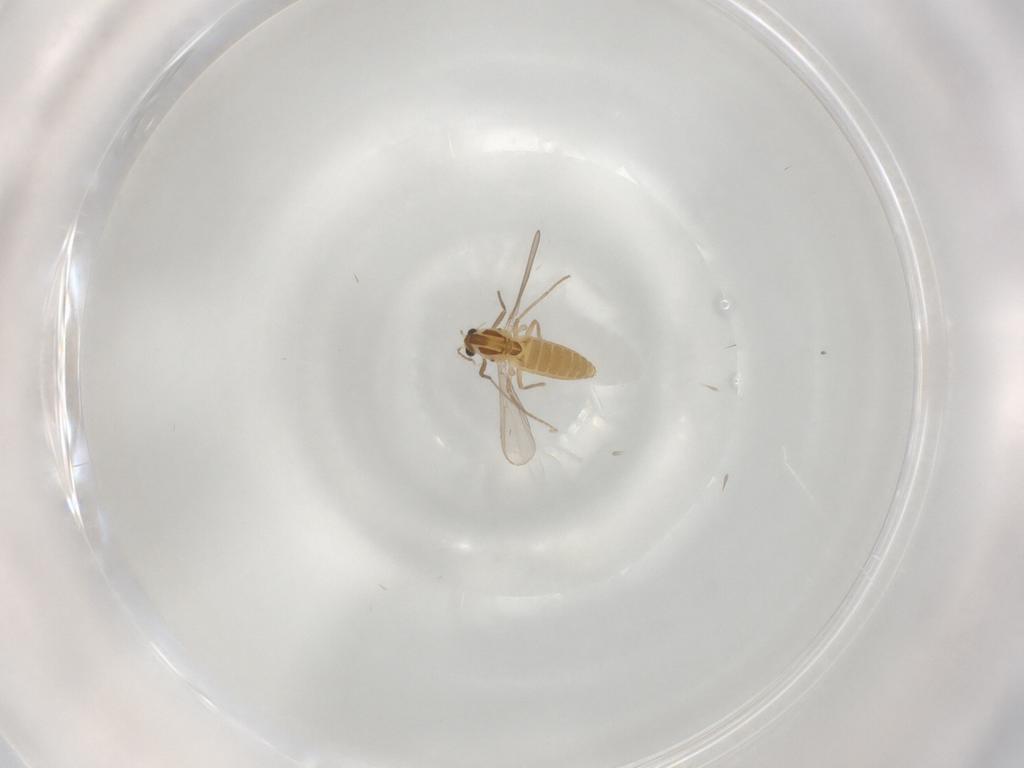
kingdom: Animalia
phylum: Arthropoda
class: Insecta
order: Diptera
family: Chironomidae
